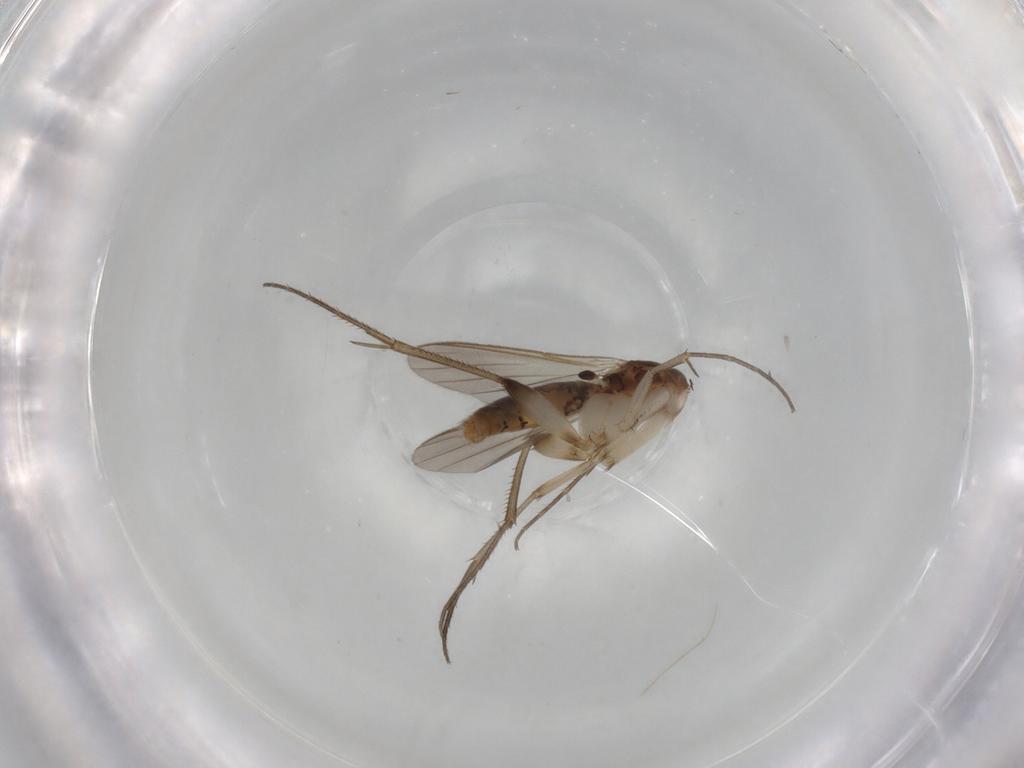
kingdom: Animalia
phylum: Arthropoda
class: Insecta
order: Diptera
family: Mycetophilidae
